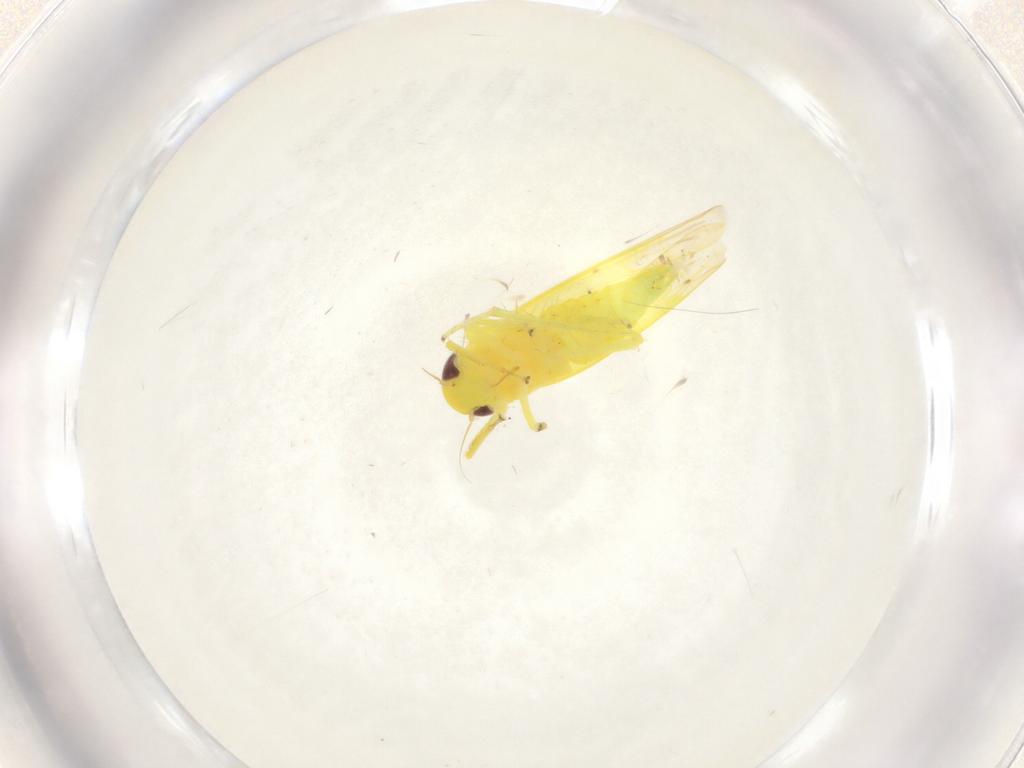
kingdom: Animalia
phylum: Arthropoda
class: Insecta
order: Hemiptera
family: Cicadellidae
